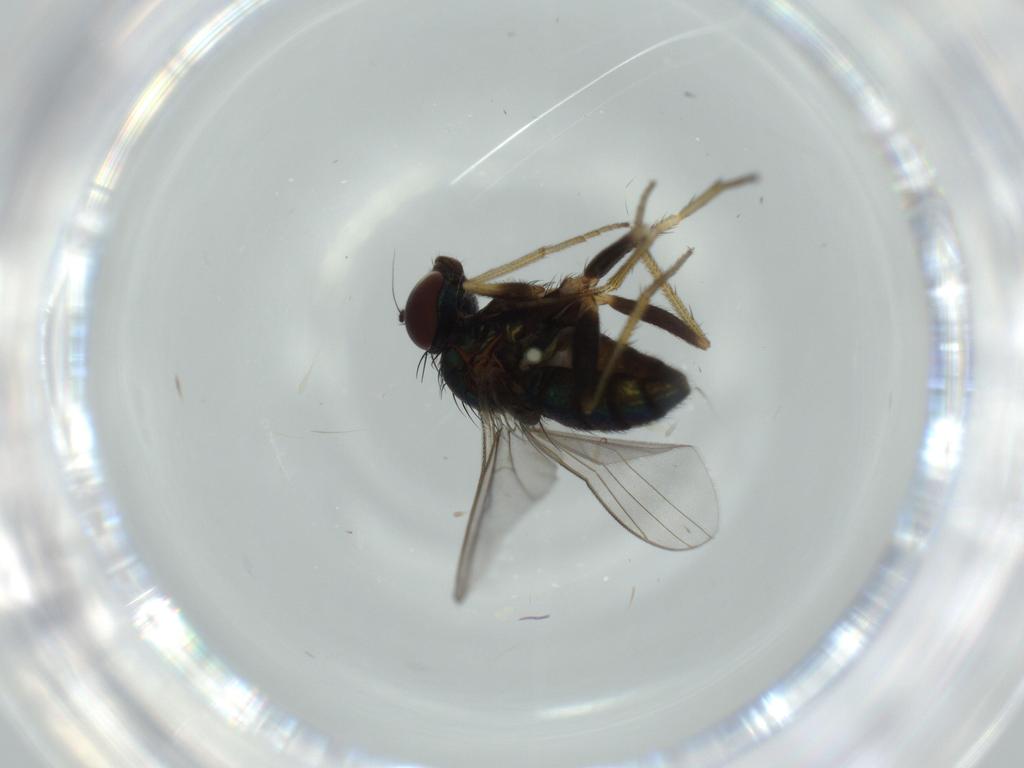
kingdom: Animalia
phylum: Arthropoda
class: Insecta
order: Diptera
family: Dolichopodidae
